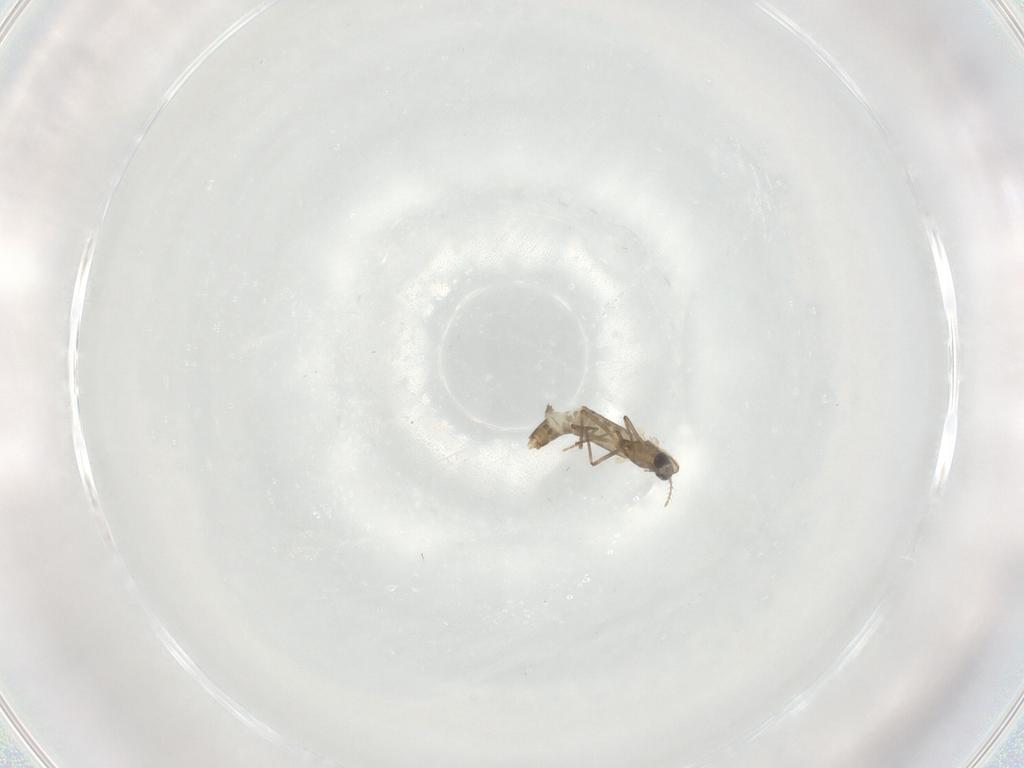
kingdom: Animalia
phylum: Arthropoda
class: Insecta
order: Diptera
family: Chironomidae
